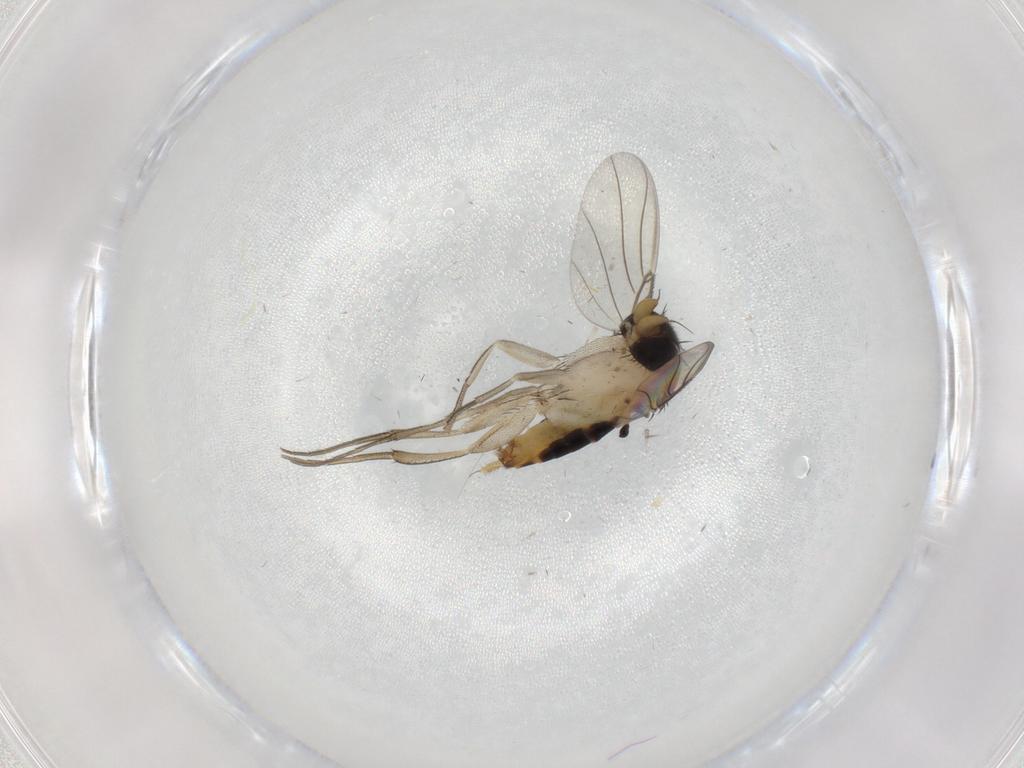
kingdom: Animalia
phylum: Arthropoda
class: Insecta
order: Diptera
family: Phoridae
